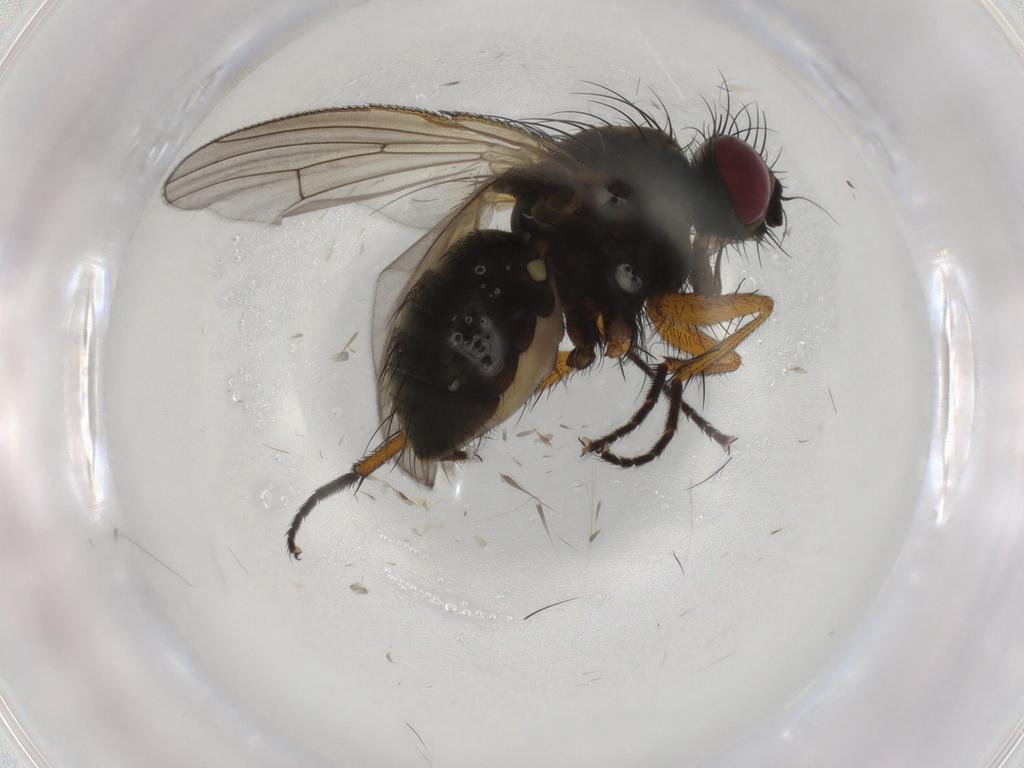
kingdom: Animalia
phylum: Arthropoda
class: Insecta
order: Diptera
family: Muscidae
